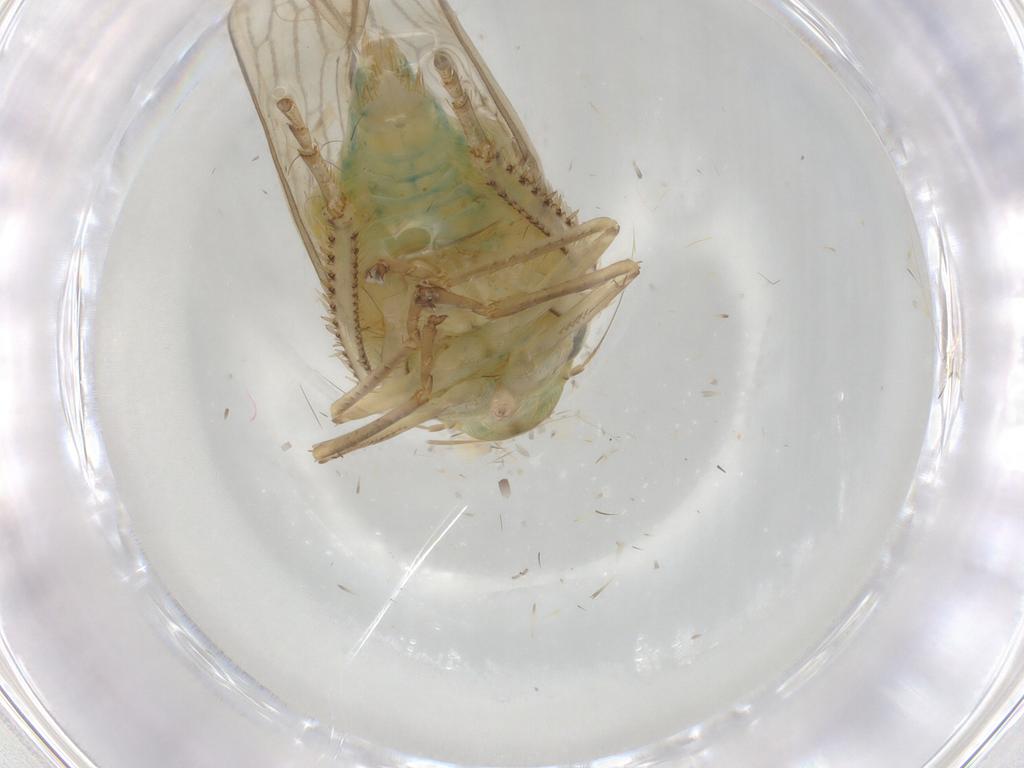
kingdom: Animalia
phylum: Arthropoda
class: Insecta
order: Hemiptera
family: Cicadellidae
